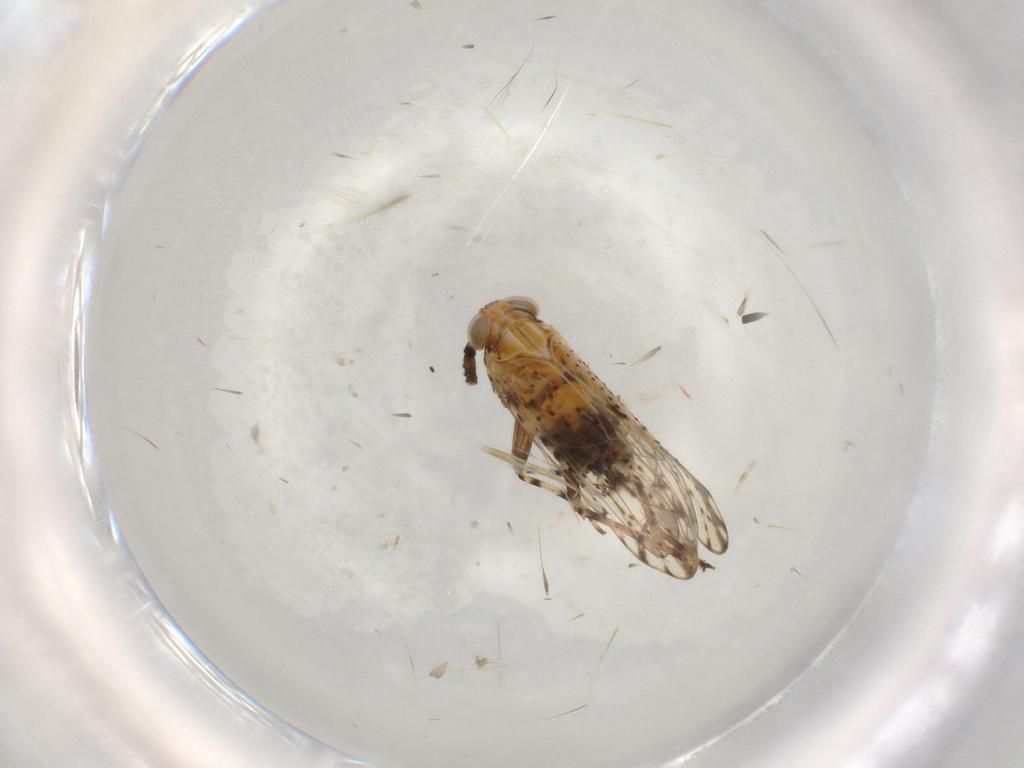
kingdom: Animalia
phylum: Arthropoda
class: Insecta
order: Hemiptera
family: Delphacidae
